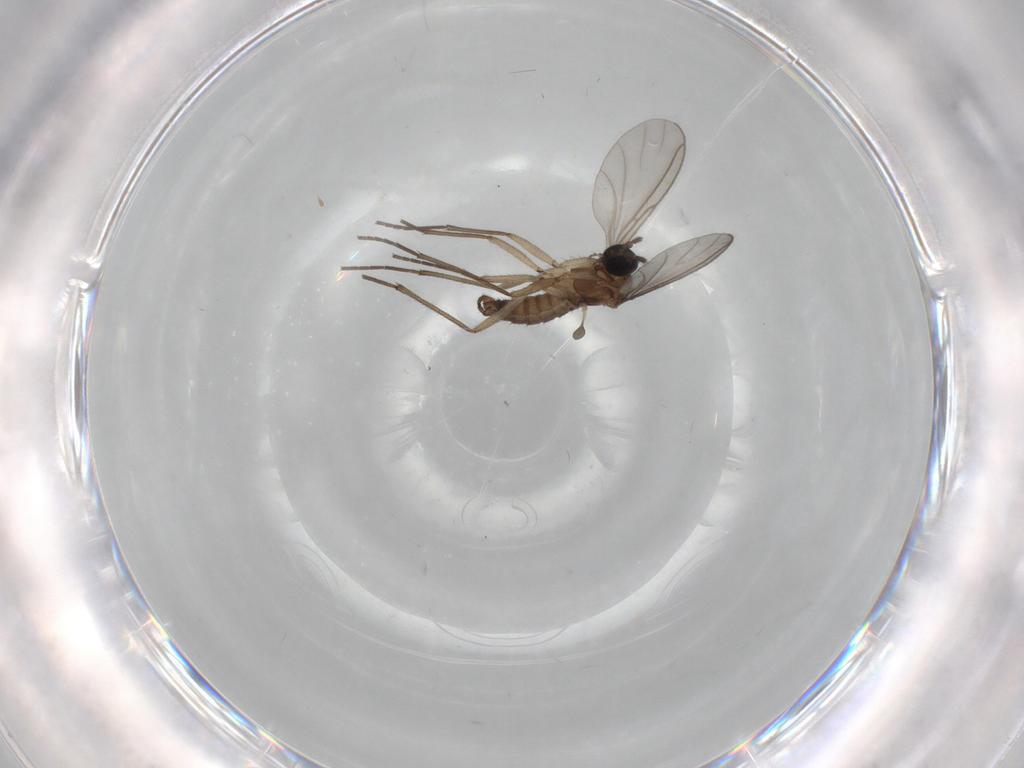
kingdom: Animalia
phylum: Arthropoda
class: Insecta
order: Diptera
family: Sciaridae
